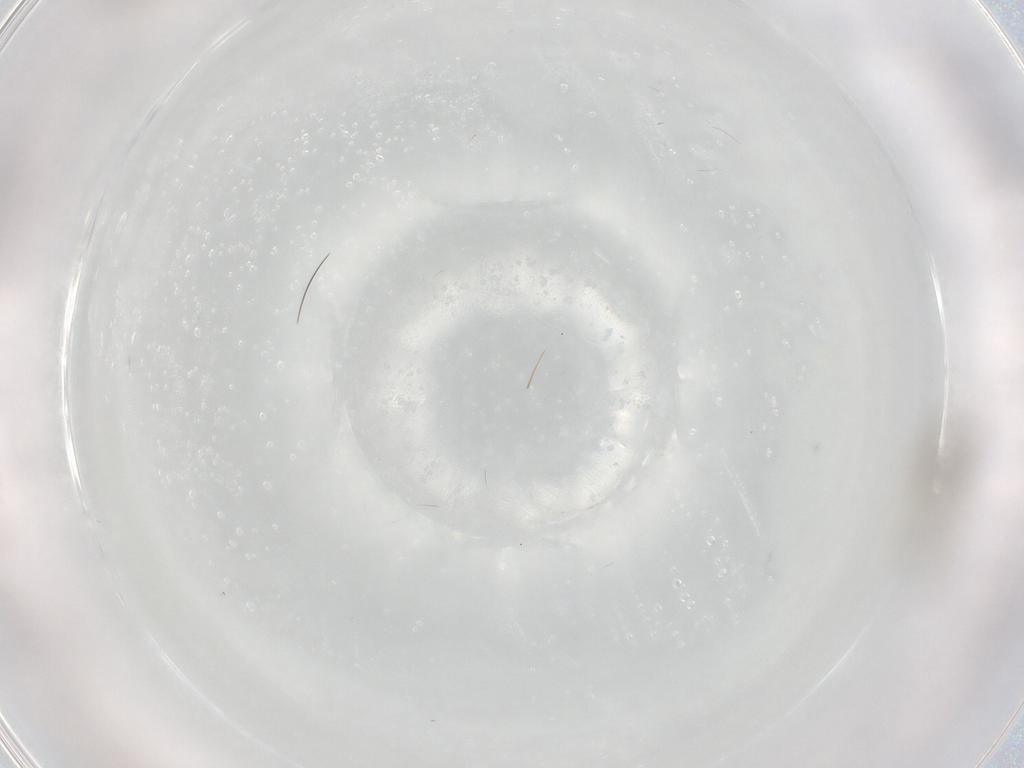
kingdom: Animalia
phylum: Arthropoda
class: Insecta
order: Diptera
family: Cecidomyiidae
